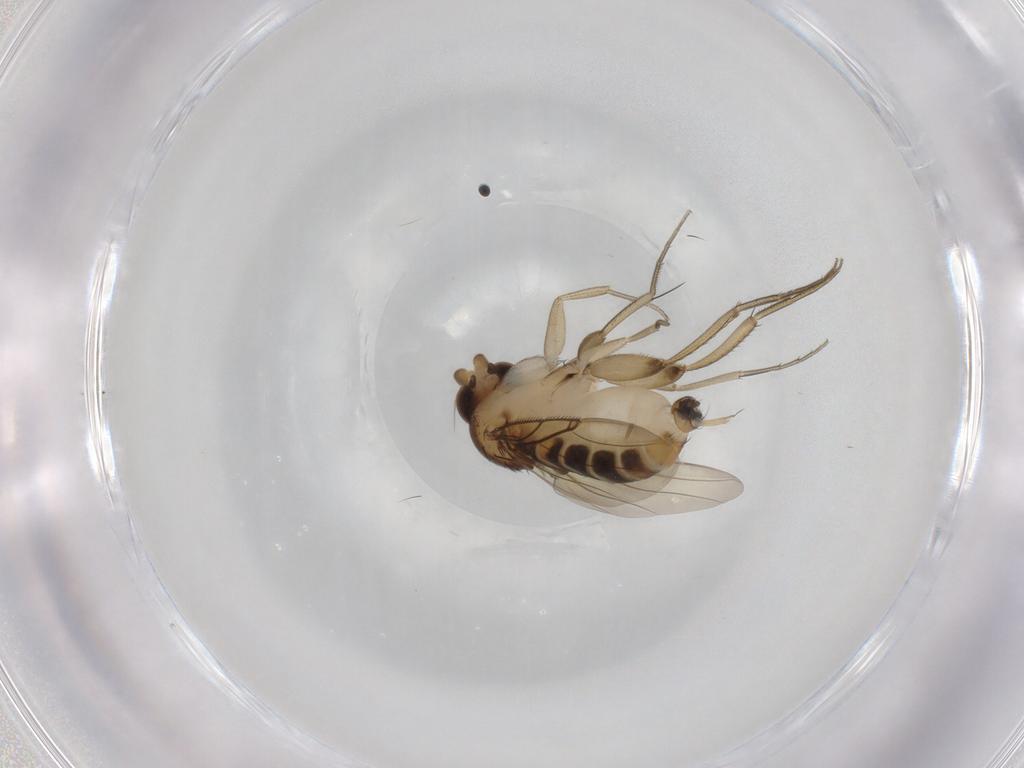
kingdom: Animalia
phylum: Arthropoda
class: Insecta
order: Diptera
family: Phoridae
